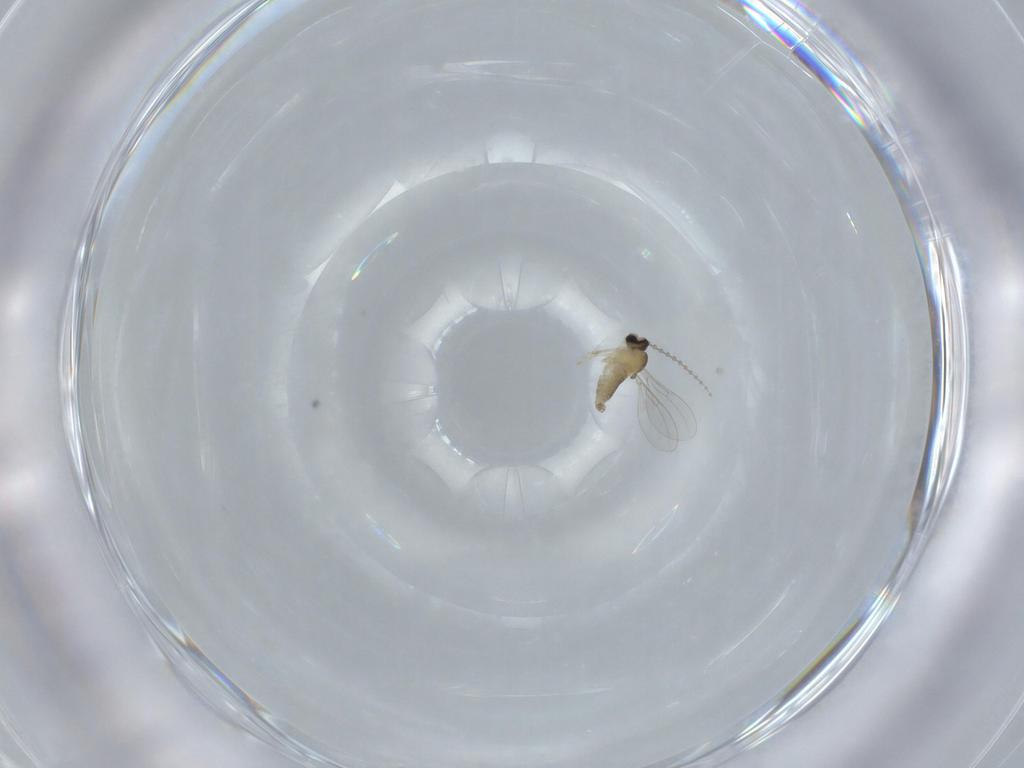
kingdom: Animalia
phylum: Arthropoda
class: Insecta
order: Diptera
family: Cecidomyiidae
